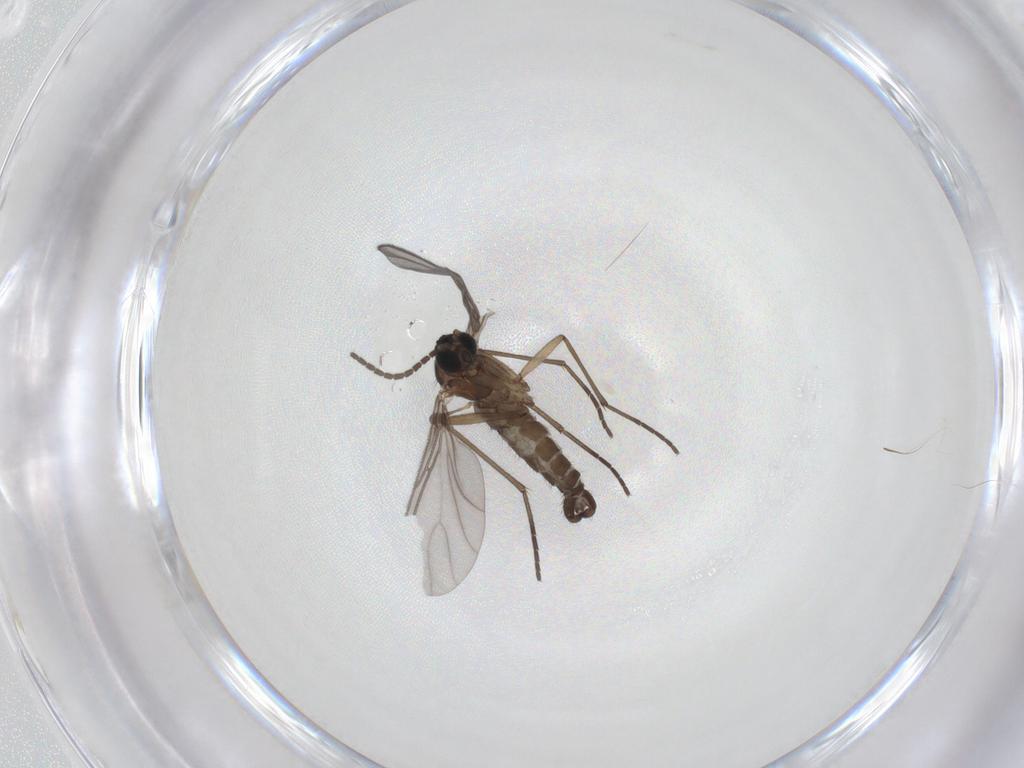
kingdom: Animalia
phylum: Arthropoda
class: Insecta
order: Diptera
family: Sciaridae
